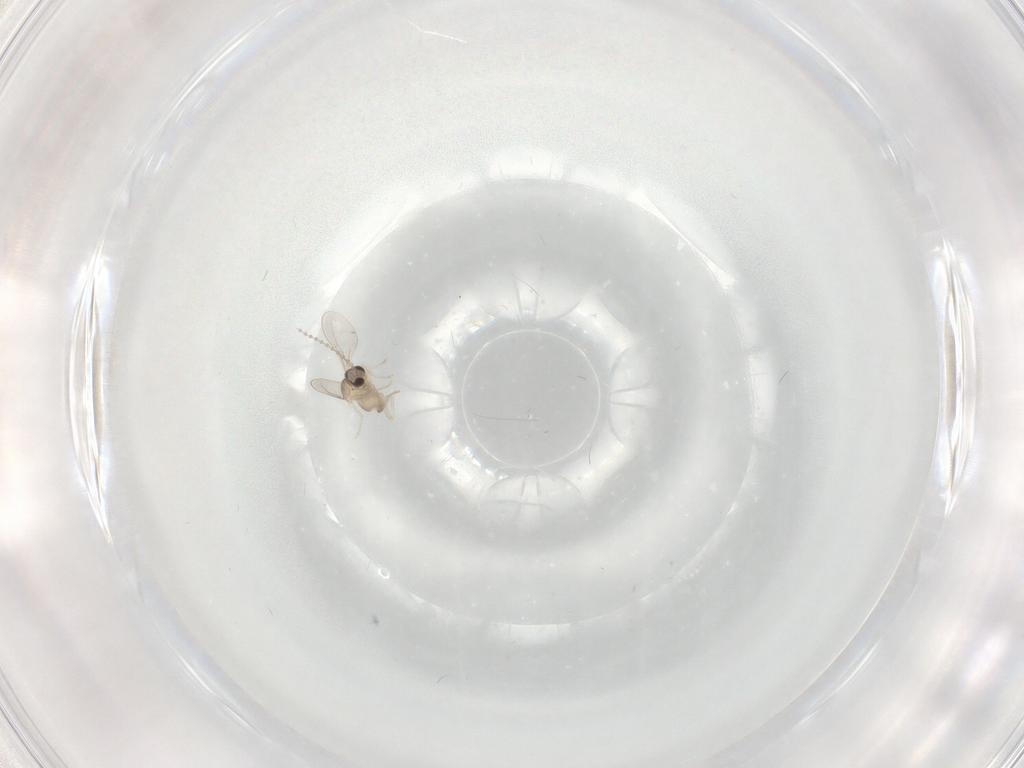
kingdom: Animalia
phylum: Arthropoda
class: Insecta
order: Diptera
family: Cecidomyiidae
